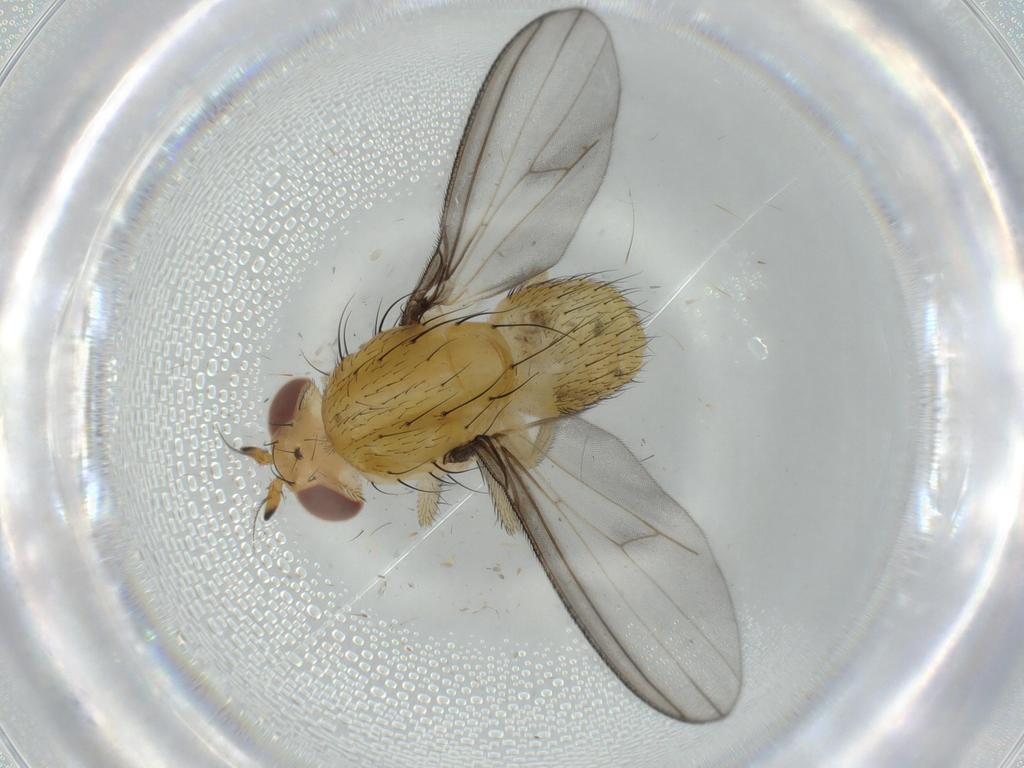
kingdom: Animalia
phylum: Arthropoda
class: Insecta
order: Diptera
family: Lauxaniidae
